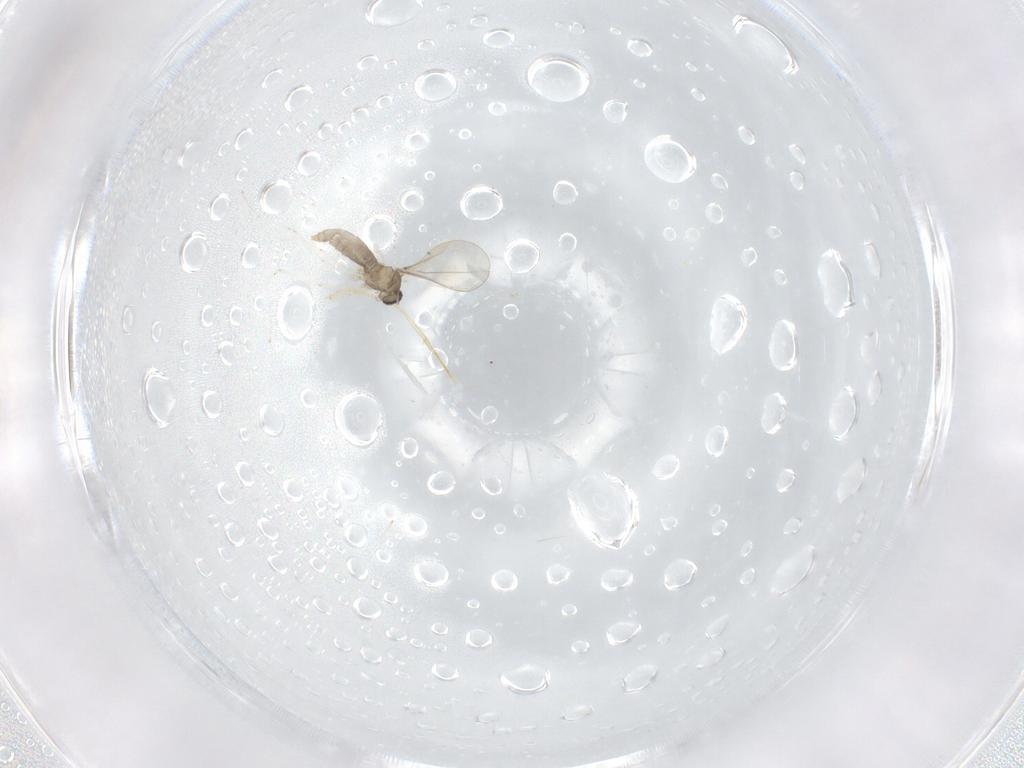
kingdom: Animalia
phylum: Arthropoda
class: Insecta
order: Diptera
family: Cecidomyiidae
